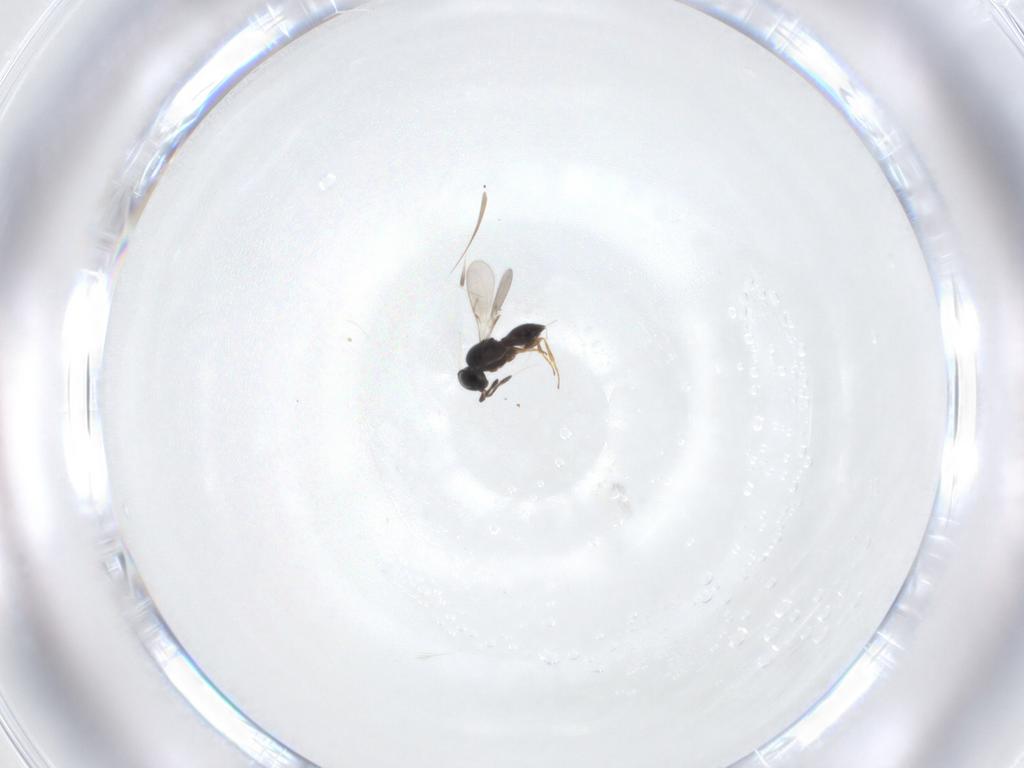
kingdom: Animalia
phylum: Arthropoda
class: Insecta
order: Hymenoptera
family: Scelionidae
